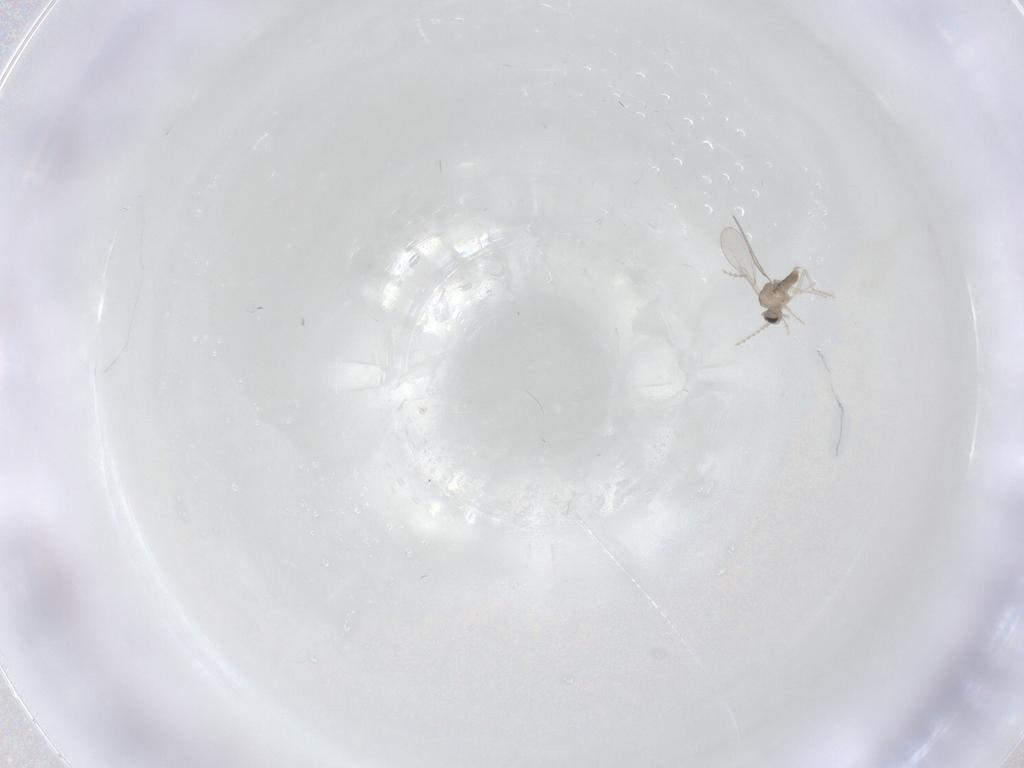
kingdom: Animalia
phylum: Arthropoda
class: Insecta
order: Diptera
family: Cecidomyiidae
